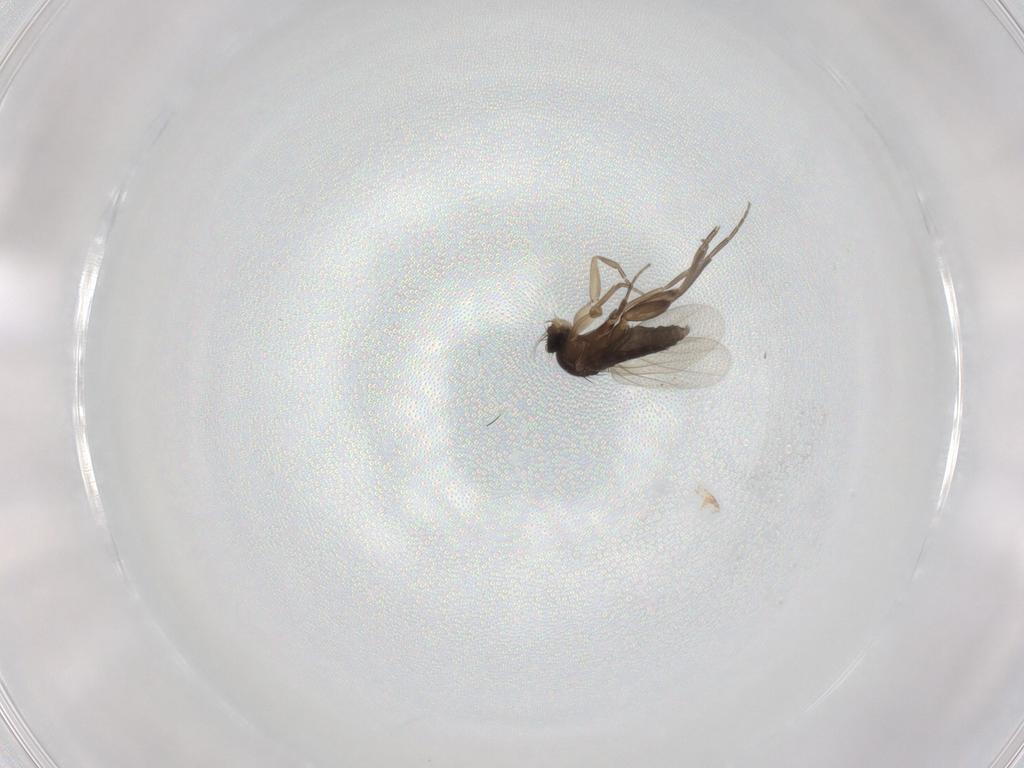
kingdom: Animalia
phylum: Arthropoda
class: Insecta
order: Diptera
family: Phoridae
